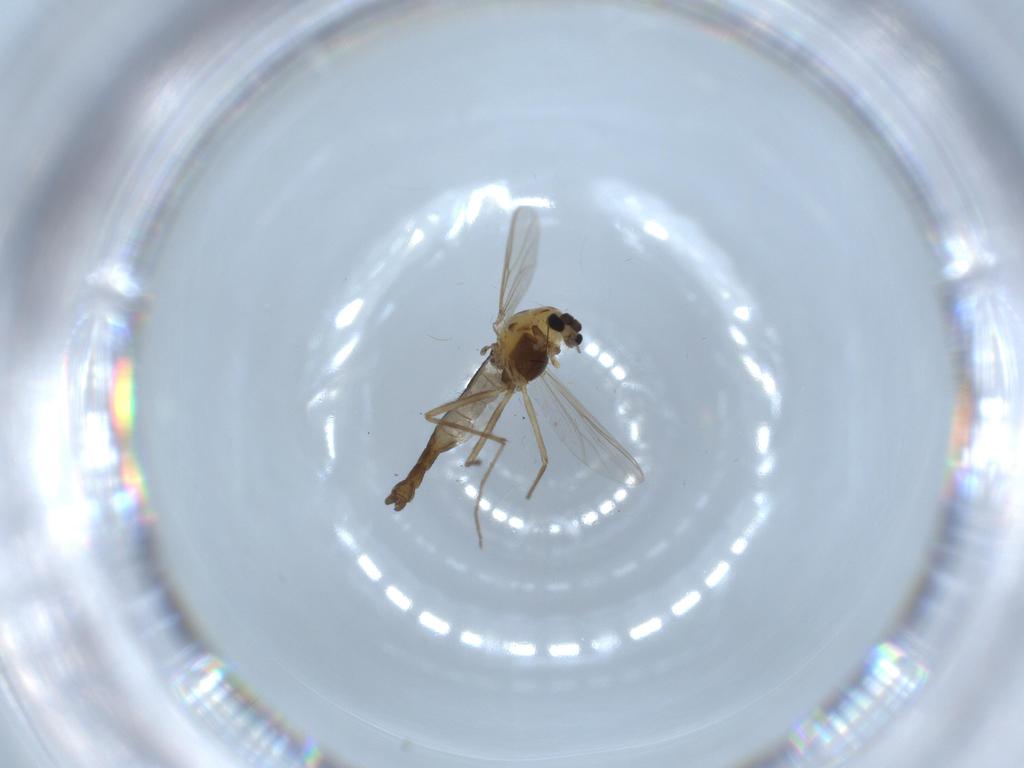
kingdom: Animalia
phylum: Arthropoda
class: Insecta
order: Diptera
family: Chironomidae
